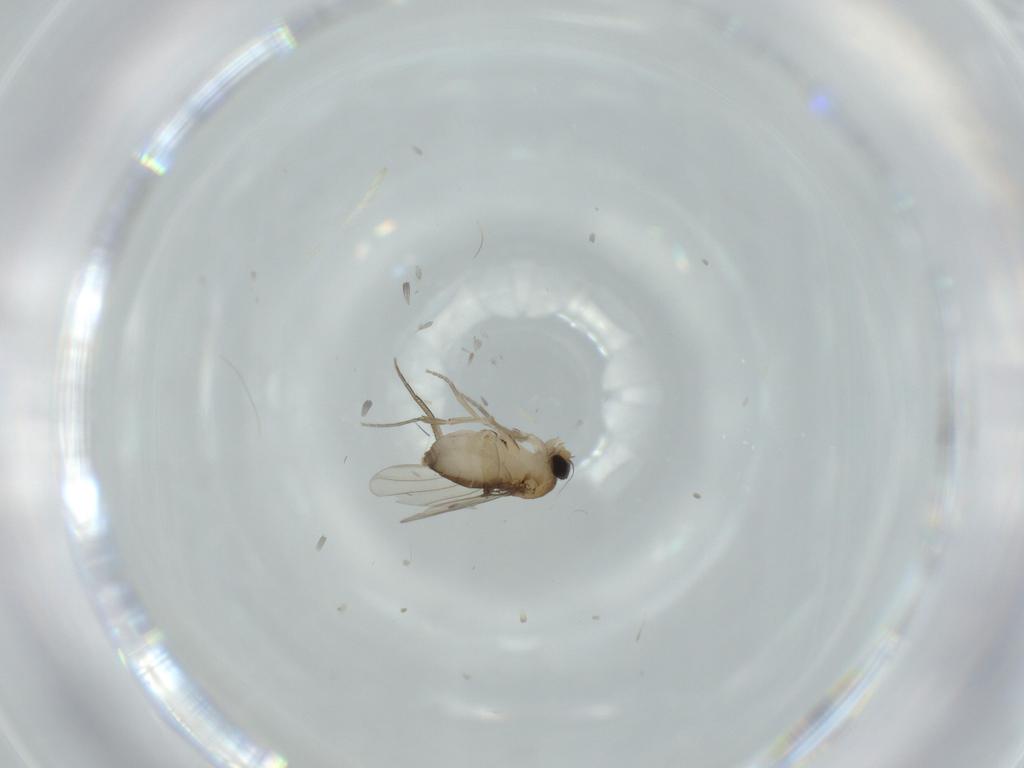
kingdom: Animalia
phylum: Arthropoda
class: Insecta
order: Diptera
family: Phoridae
